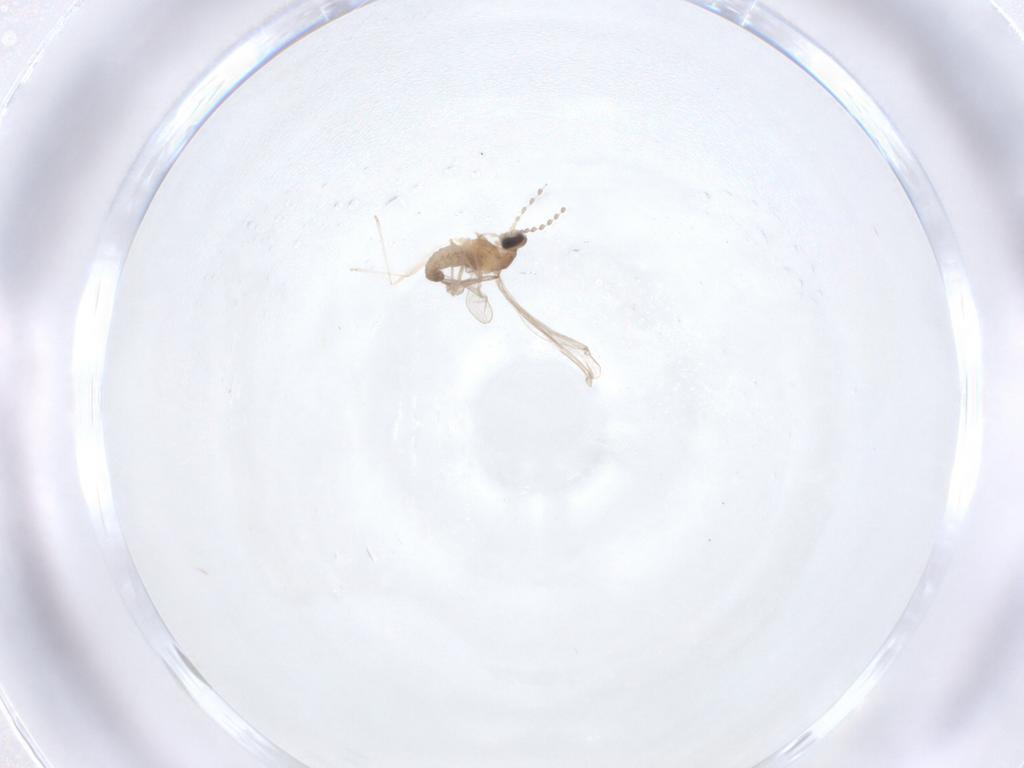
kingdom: Animalia
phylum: Arthropoda
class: Insecta
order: Diptera
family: Cecidomyiidae
